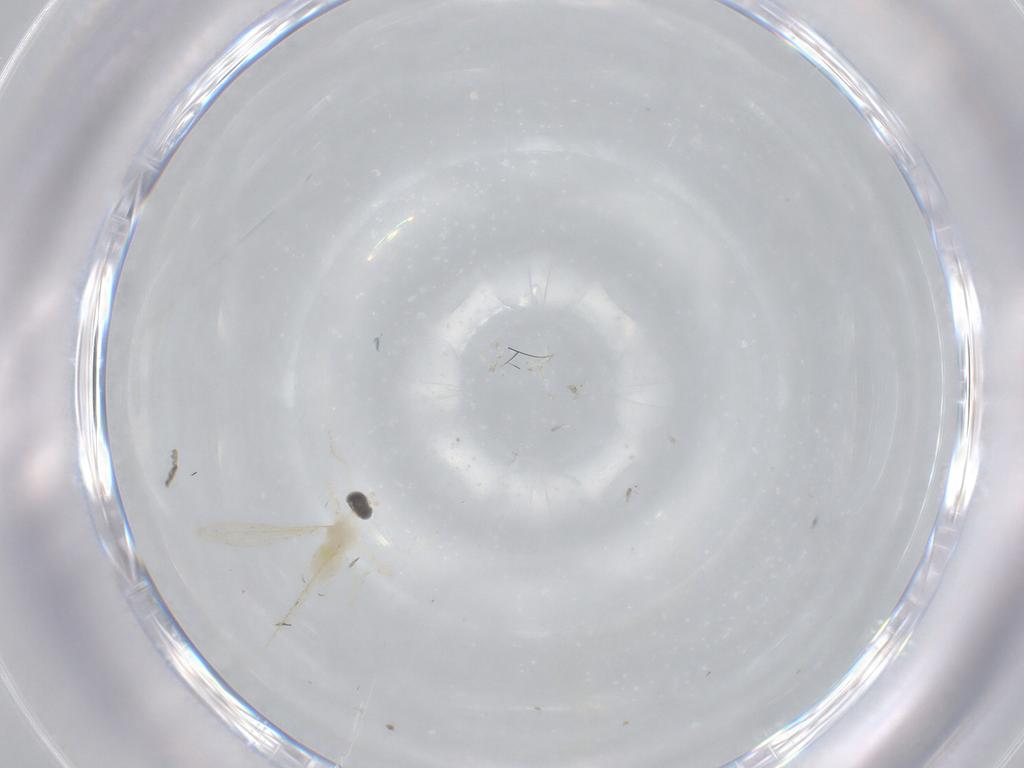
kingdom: Animalia
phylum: Arthropoda
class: Insecta
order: Diptera
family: Cecidomyiidae
